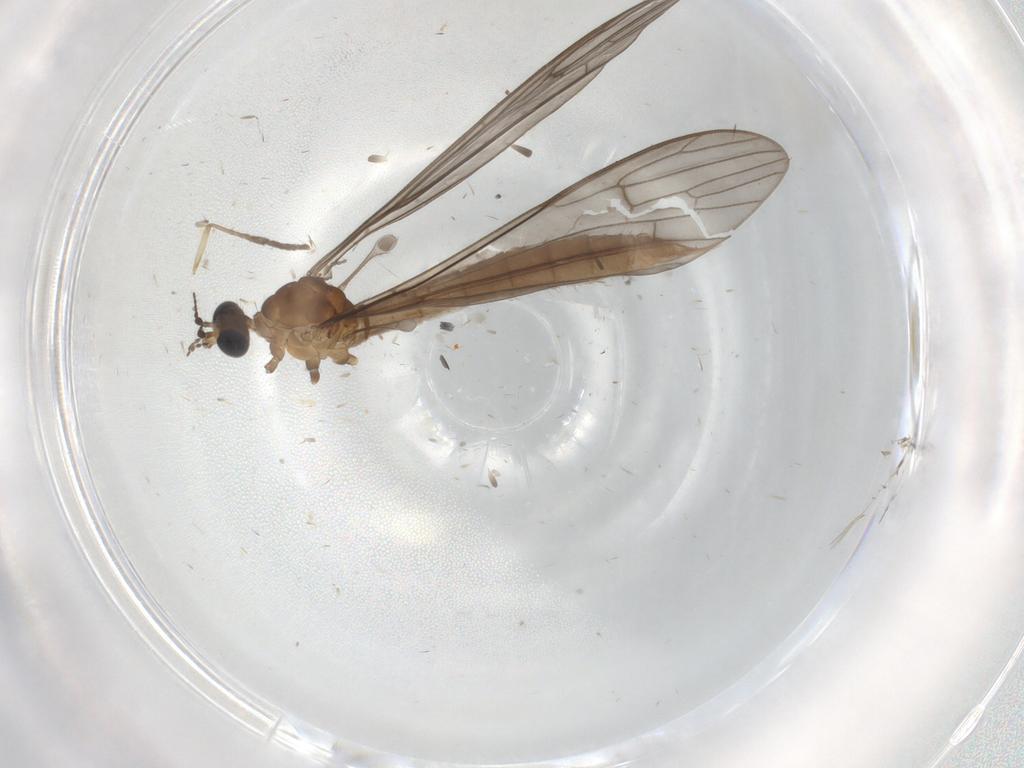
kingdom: Animalia
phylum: Arthropoda
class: Insecta
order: Diptera
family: Limoniidae
